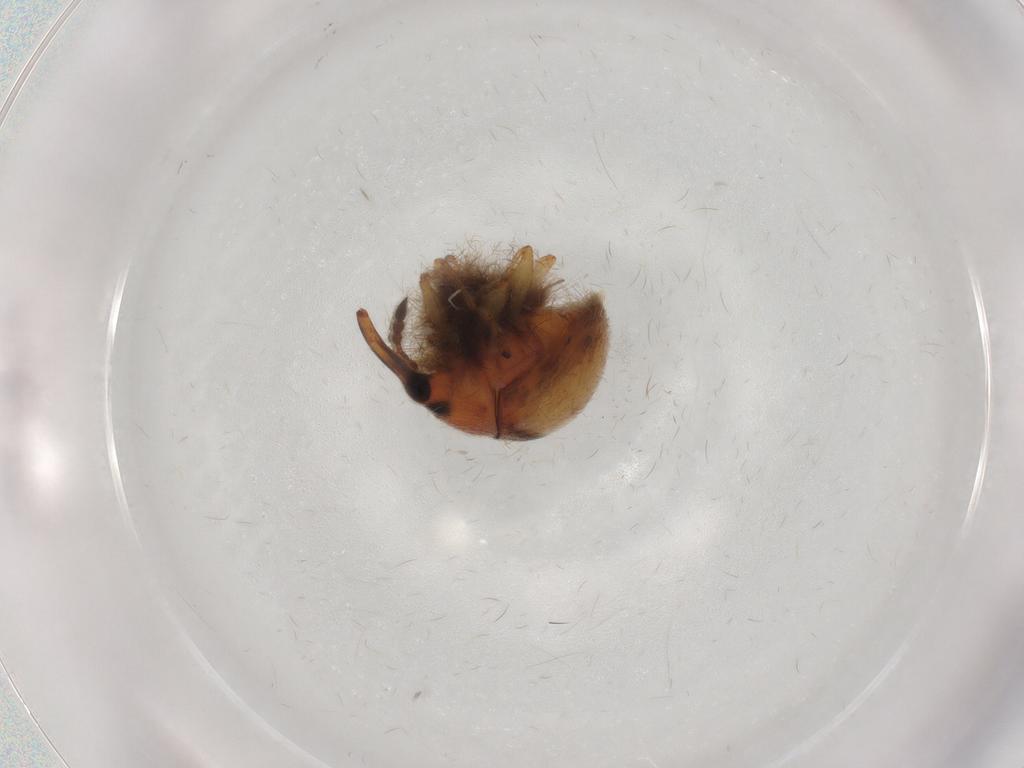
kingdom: Animalia
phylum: Arthropoda
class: Insecta
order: Coleoptera
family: Brentidae
